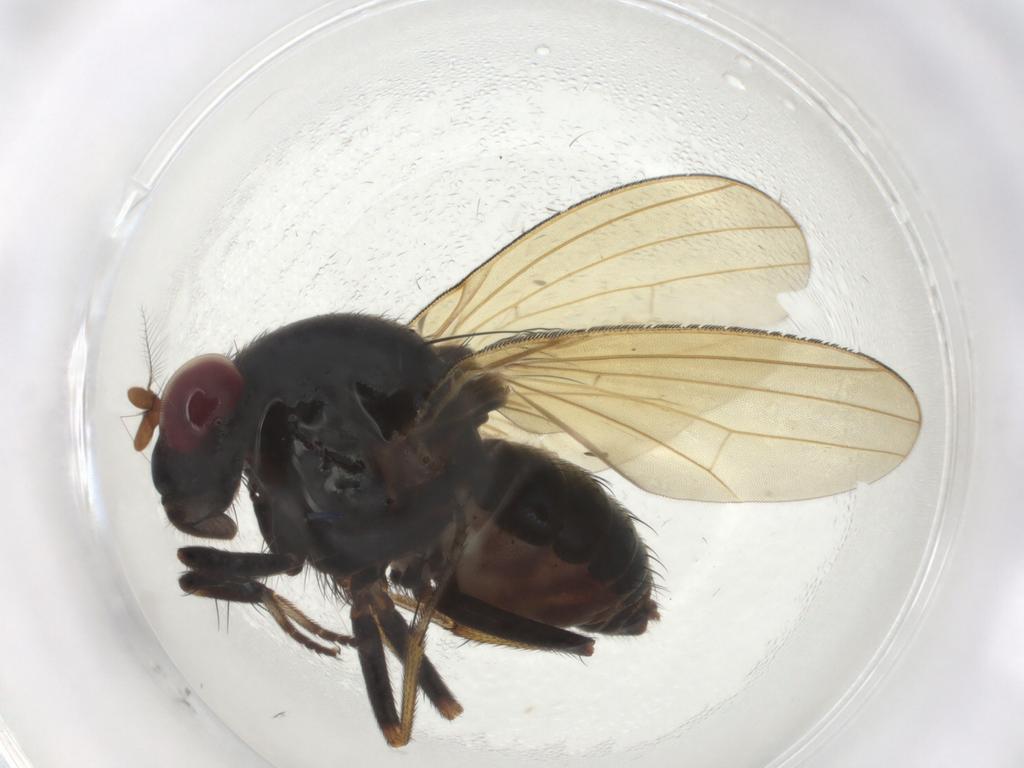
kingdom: Animalia
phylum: Arthropoda
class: Insecta
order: Diptera
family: Lauxaniidae
